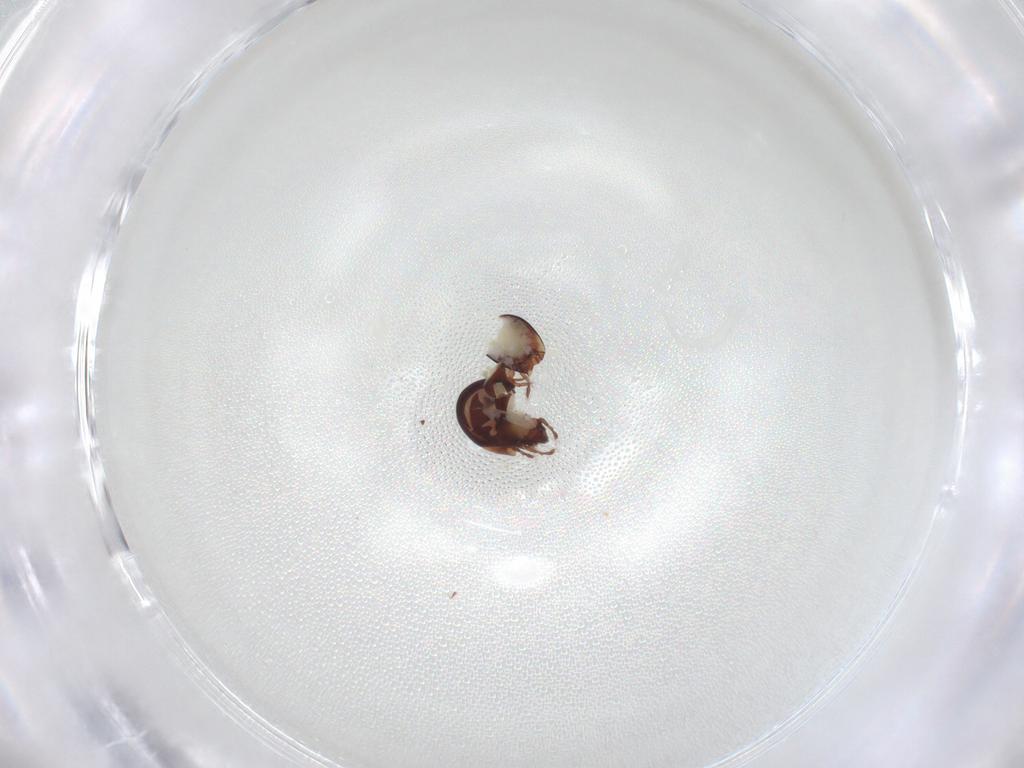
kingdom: Animalia
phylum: Arthropoda
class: Arachnida
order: Sarcoptiformes
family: Humerobatidae
